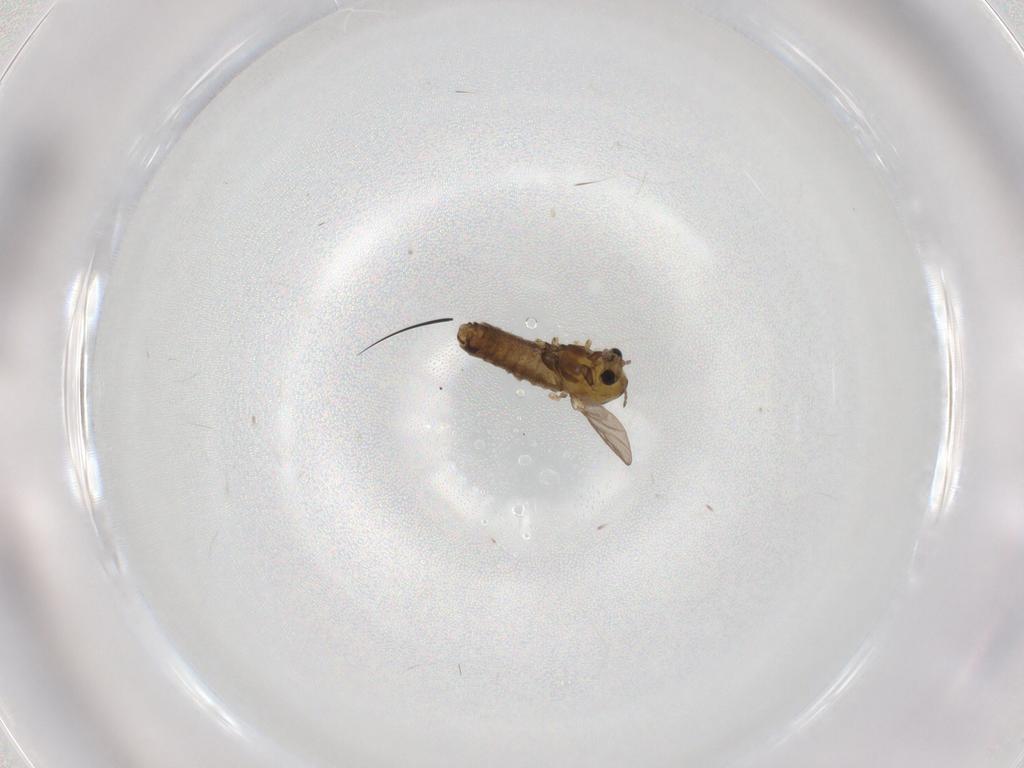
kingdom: Animalia
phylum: Arthropoda
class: Insecta
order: Diptera
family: Chironomidae
